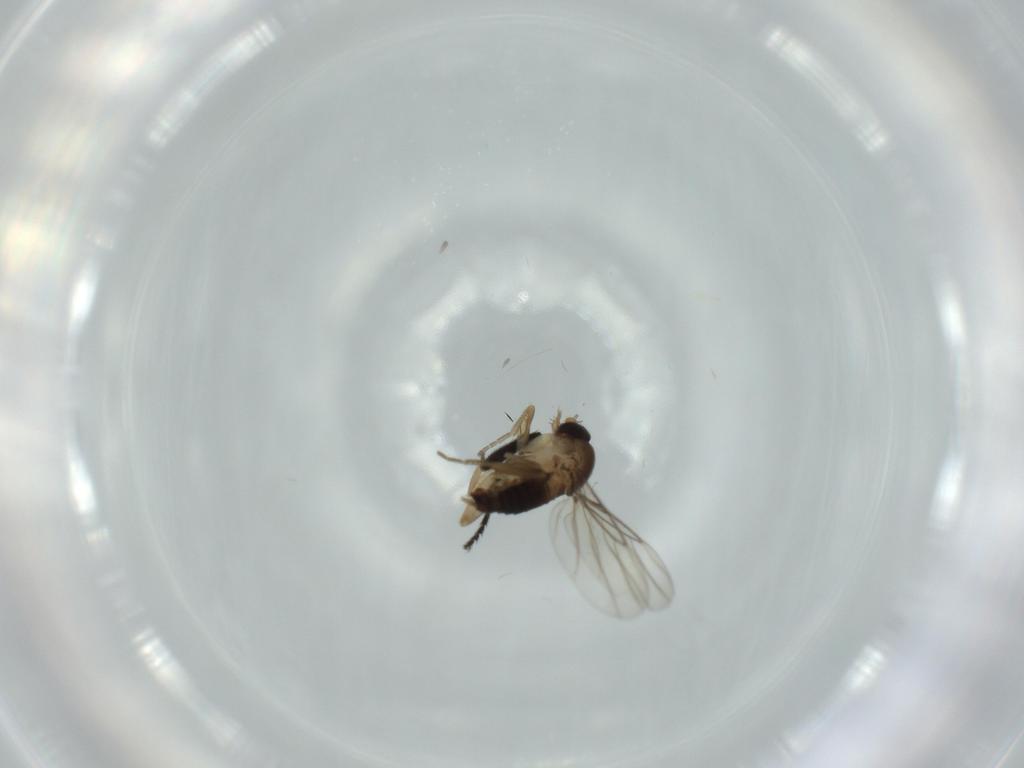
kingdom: Animalia
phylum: Arthropoda
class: Insecta
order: Diptera
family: Phoridae
